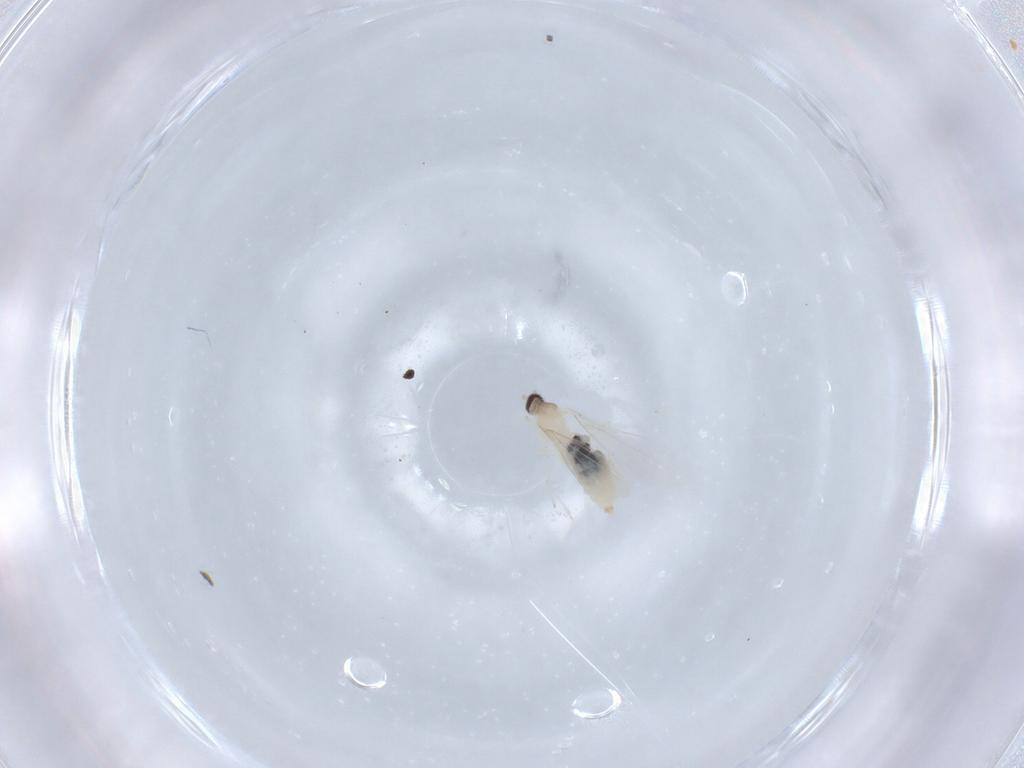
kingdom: Animalia
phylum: Arthropoda
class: Insecta
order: Diptera
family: Cecidomyiidae
